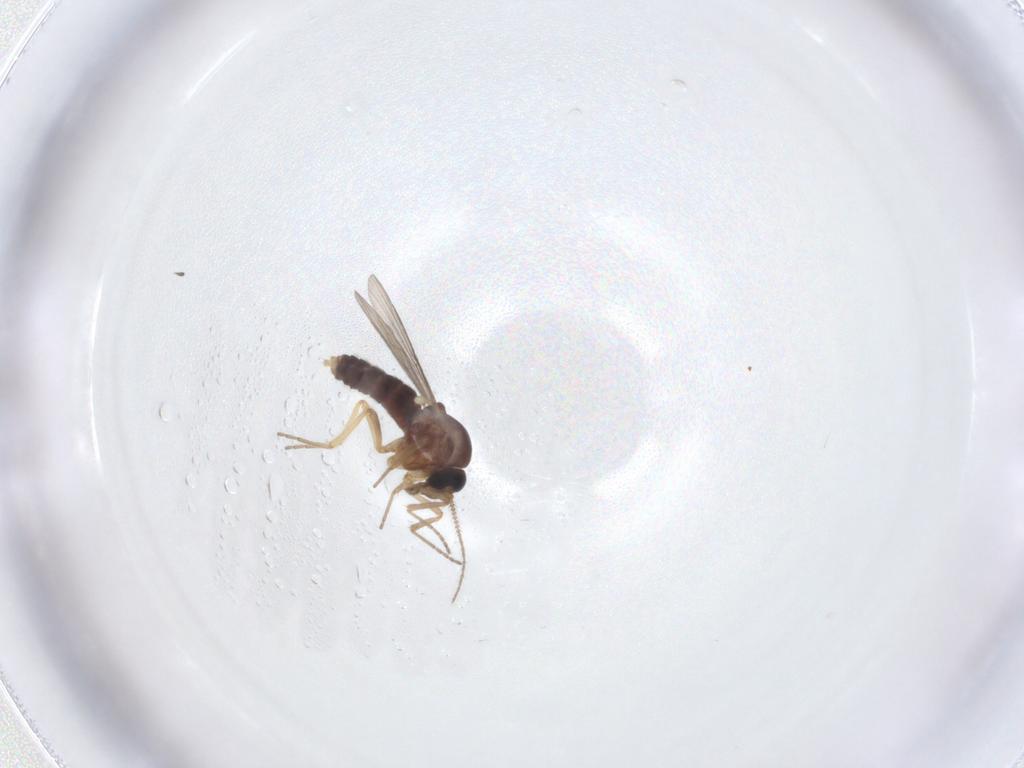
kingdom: Animalia
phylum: Arthropoda
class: Insecta
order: Diptera
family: Ceratopogonidae
